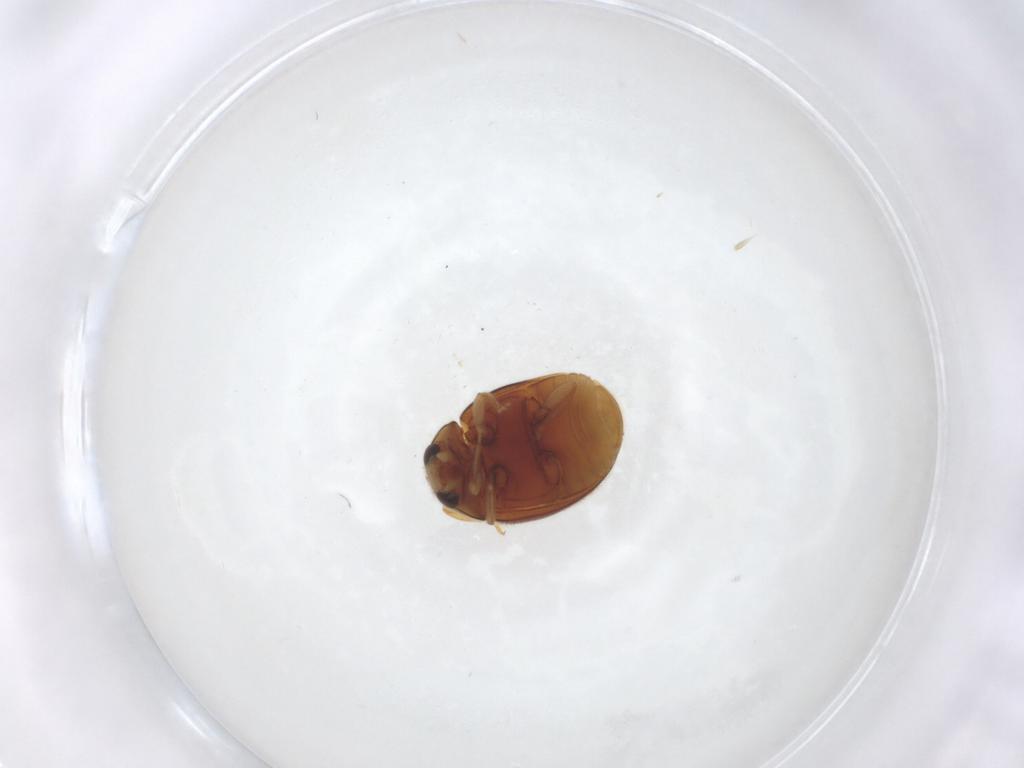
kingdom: Animalia
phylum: Arthropoda
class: Insecta
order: Coleoptera
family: Coccinellidae
